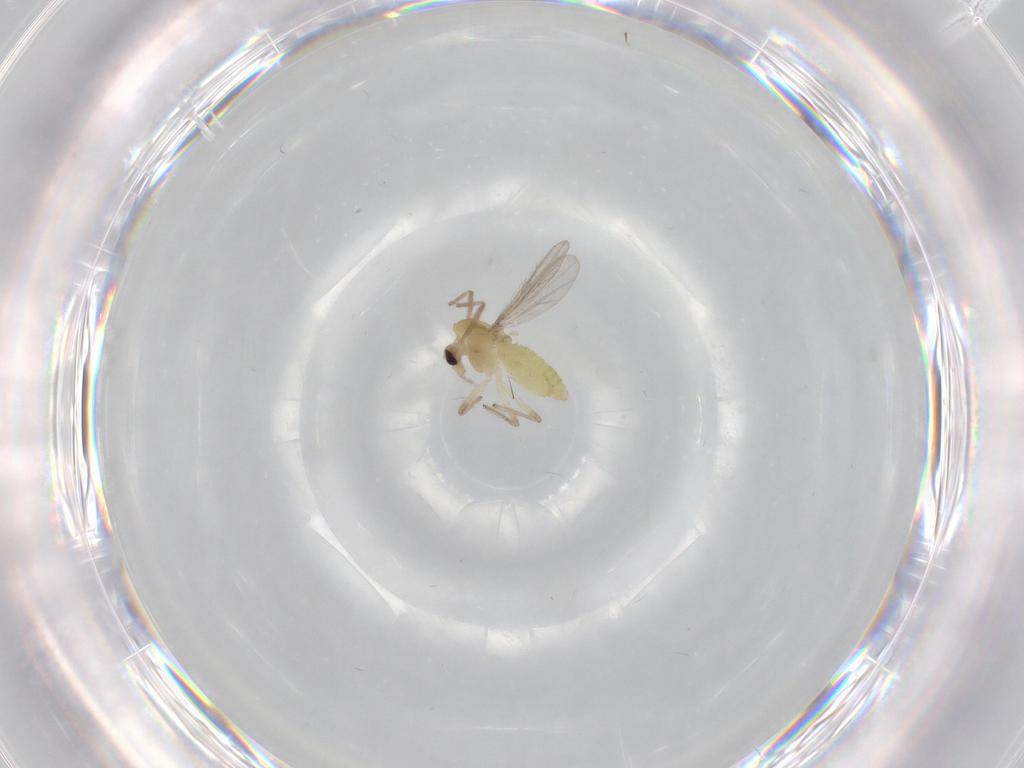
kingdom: Animalia
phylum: Arthropoda
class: Insecta
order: Diptera
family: Chironomidae
